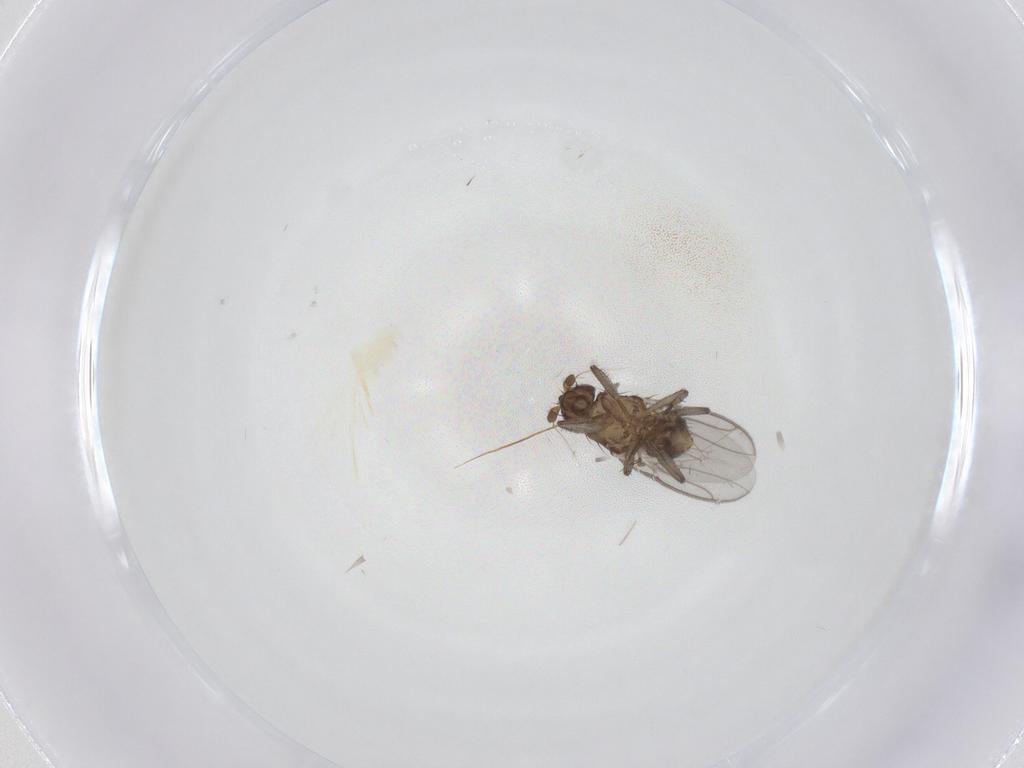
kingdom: Animalia
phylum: Arthropoda
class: Insecta
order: Diptera
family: Sphaeroceridae
